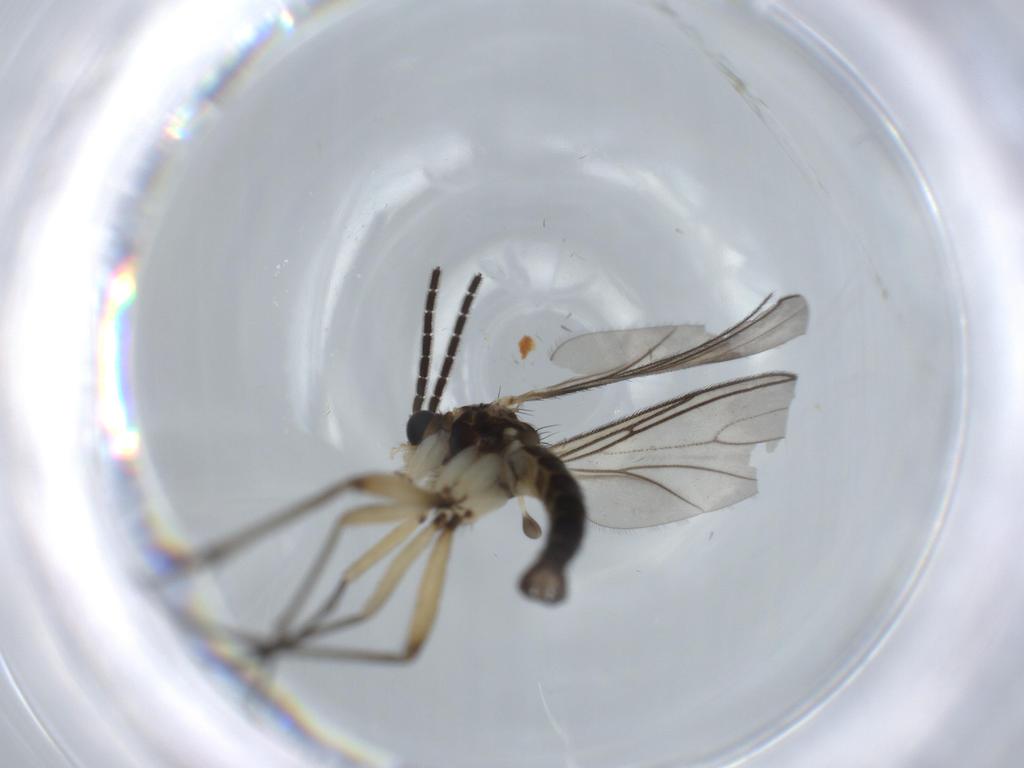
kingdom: Animalia
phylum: Arthropoda
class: Insecta
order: Diptera
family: Sciaridae
